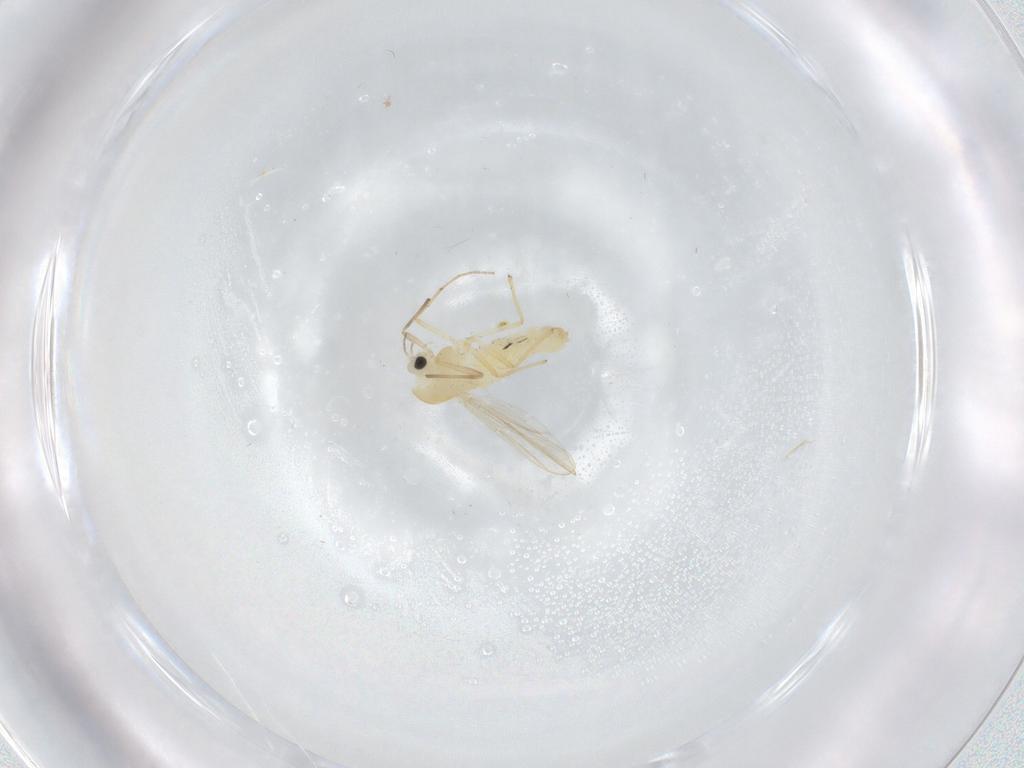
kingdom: Animalia
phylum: Arthropoda
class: Insecta
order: Diptera
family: Chironomidae
